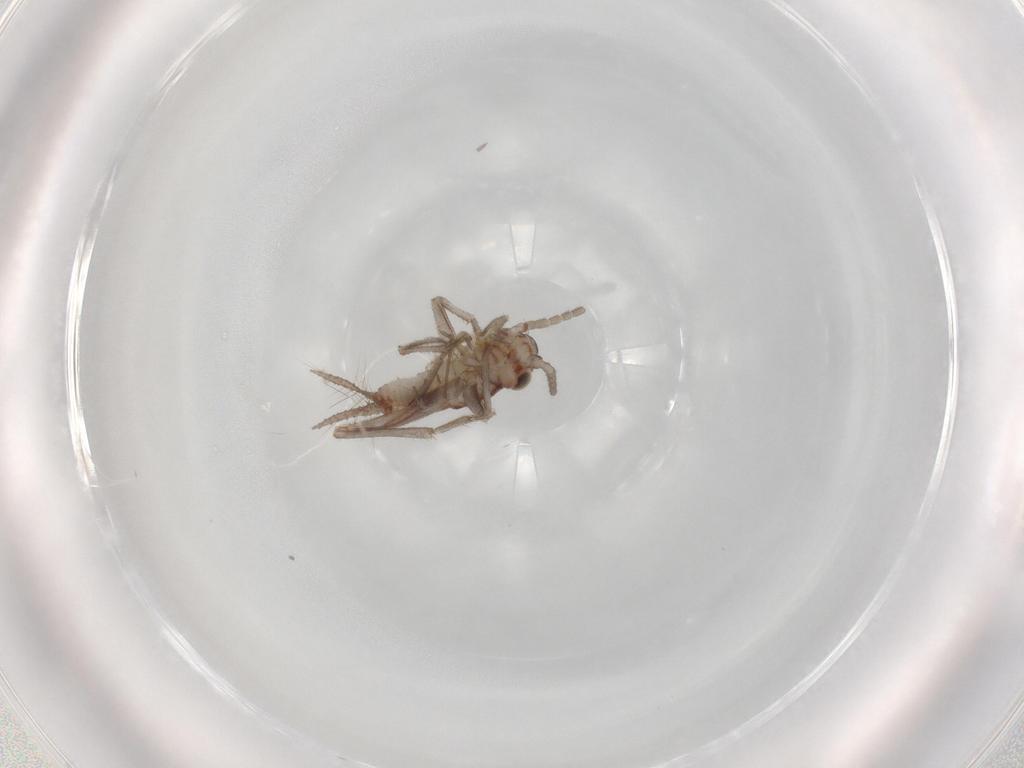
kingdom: Animalia
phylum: Arthropoda
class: Insecta
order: Orthoptera
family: Trigonidiidae
